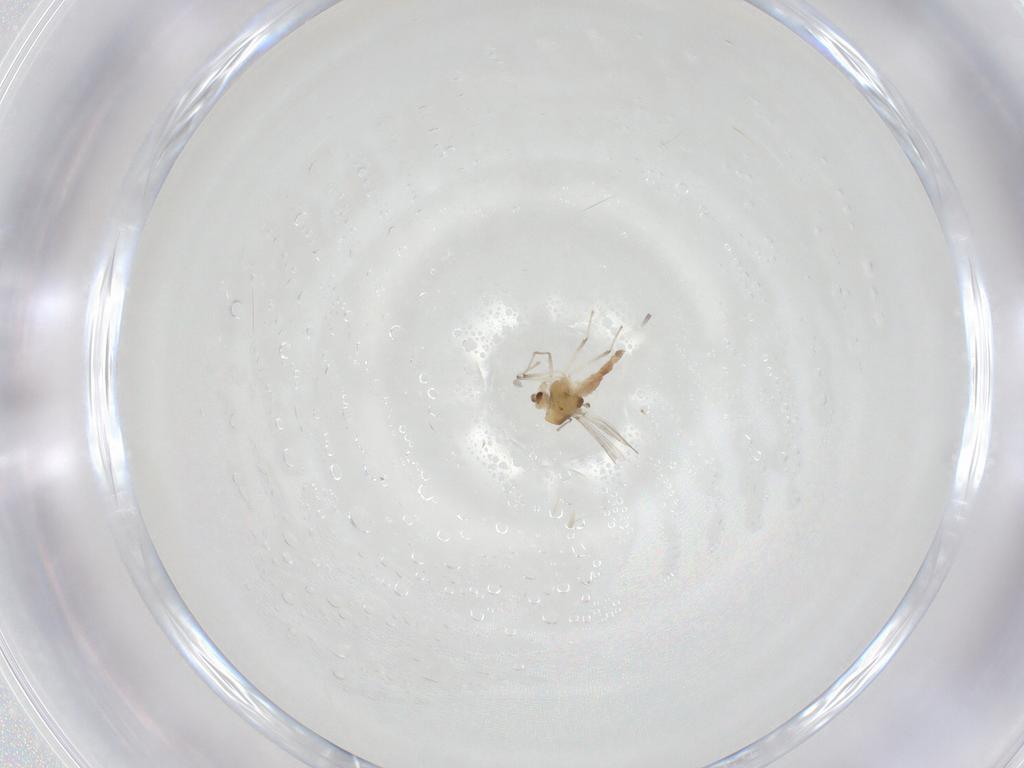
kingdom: Animalia
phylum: Arthropoda
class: Insecta
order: Diptera
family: Chironomidae
